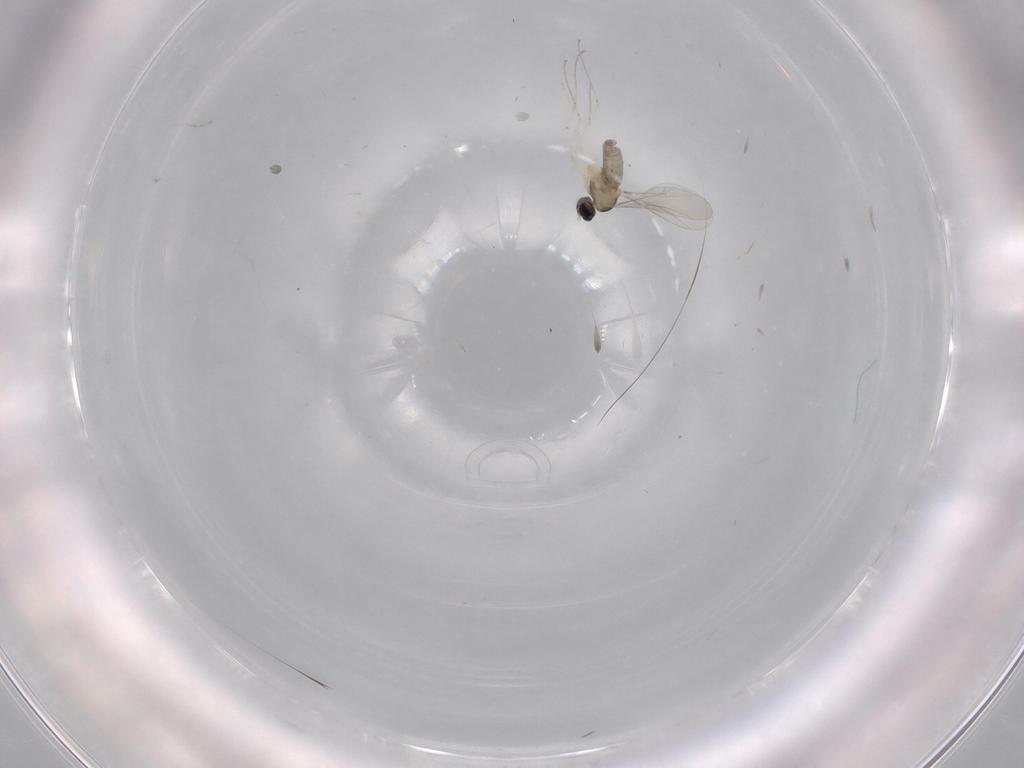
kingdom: Animalia
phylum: Arthropoda
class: Insecta
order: Diptera
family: Cecidomyiidae
